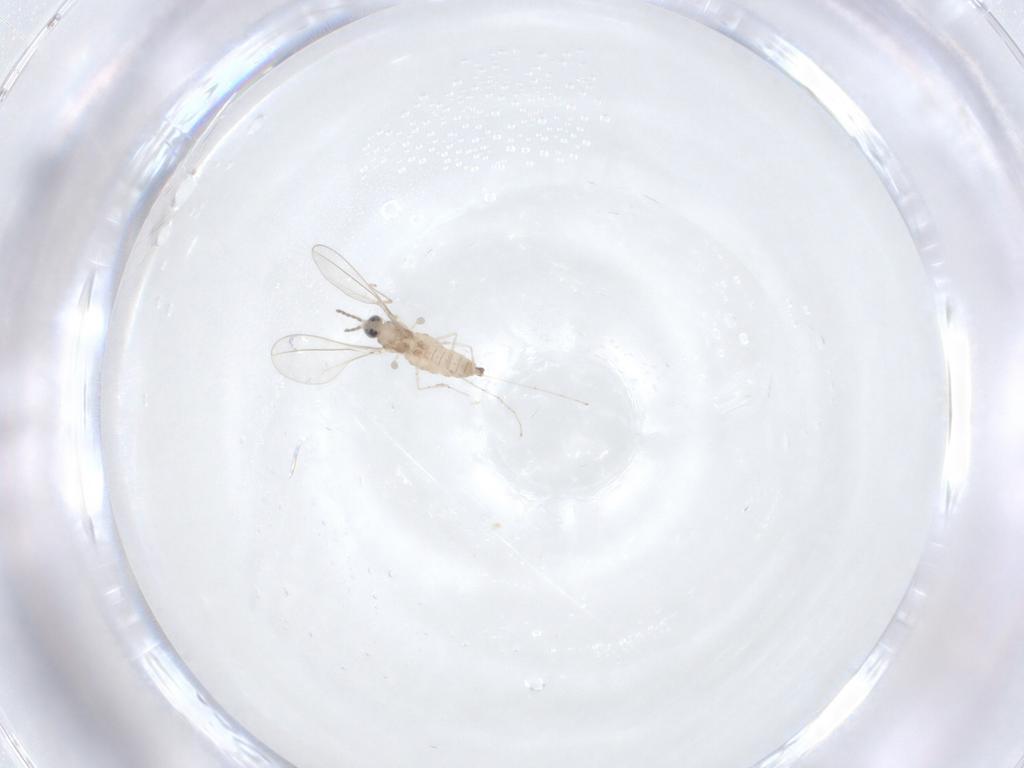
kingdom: Animalia
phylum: Arthropoda
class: Insecta
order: Diptera
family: Cecidomyiidae
